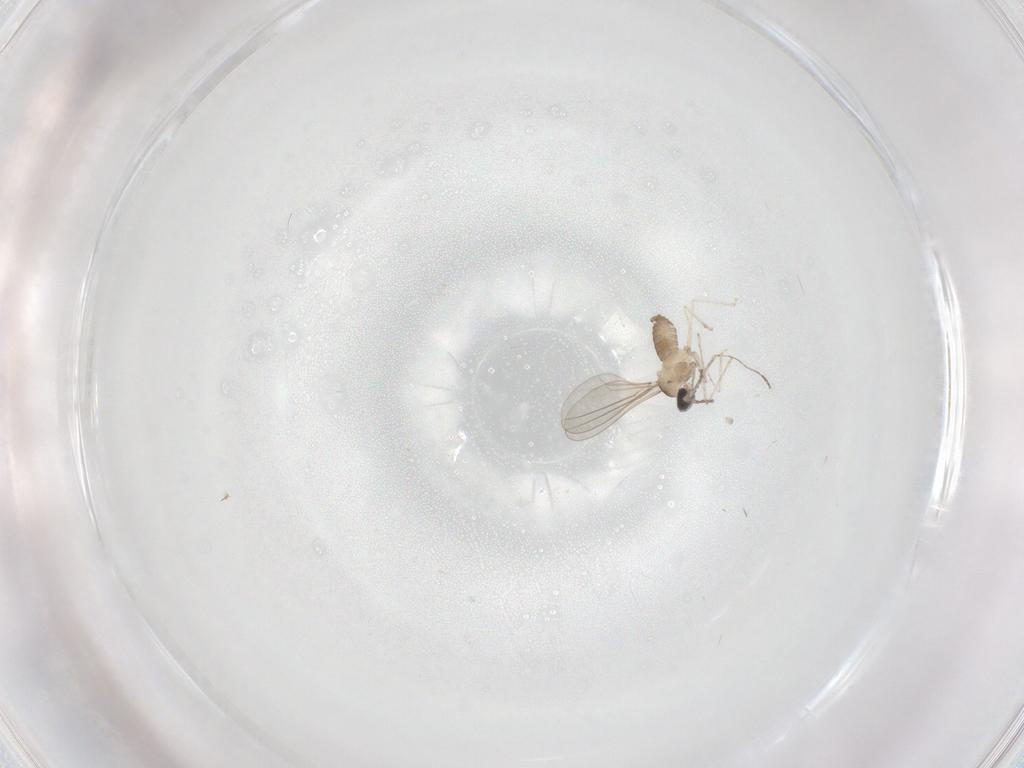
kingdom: Animalia
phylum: Arthropoda
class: Insecta
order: Diptera
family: Cecidomyiidae
